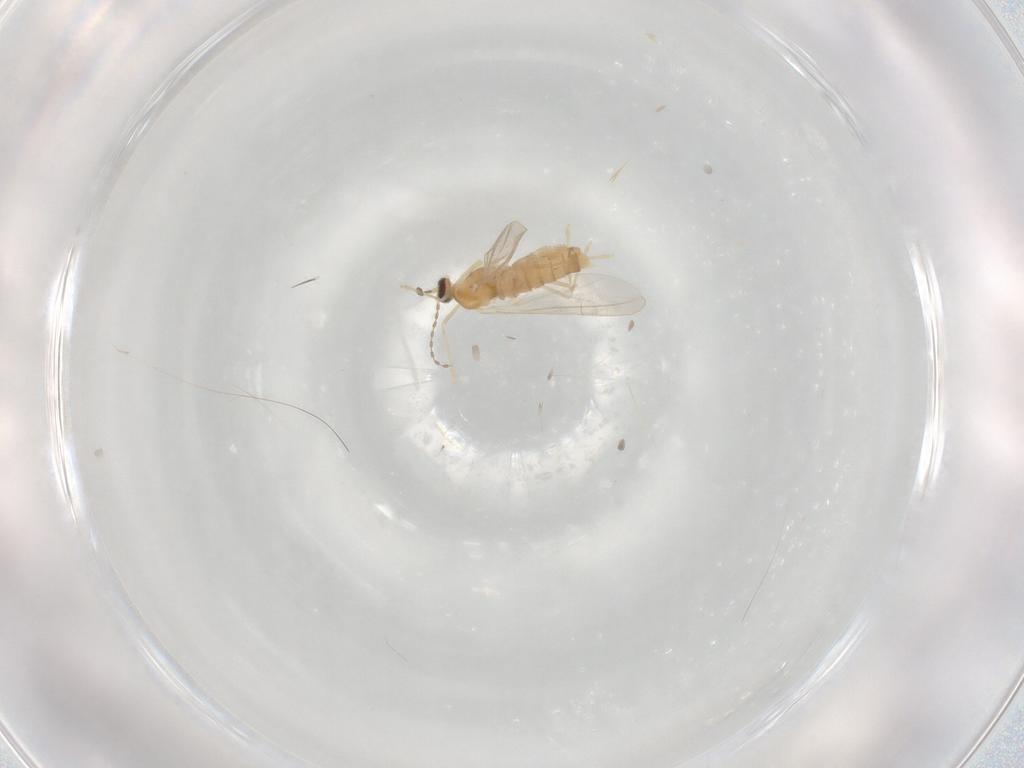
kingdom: Animalia
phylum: Arthropoda
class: Insecta
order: Diptera
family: Cecidomyiidae
